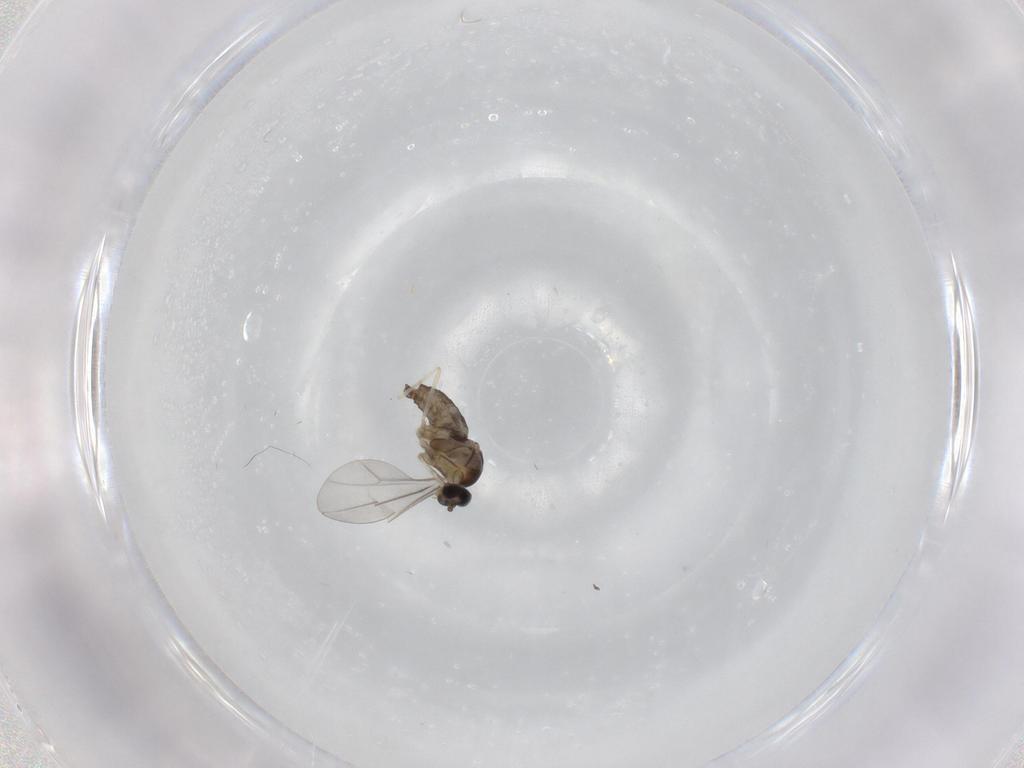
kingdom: Animalia
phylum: Arthropoda
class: Insecta
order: Diptera
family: Cecidomyiidae
